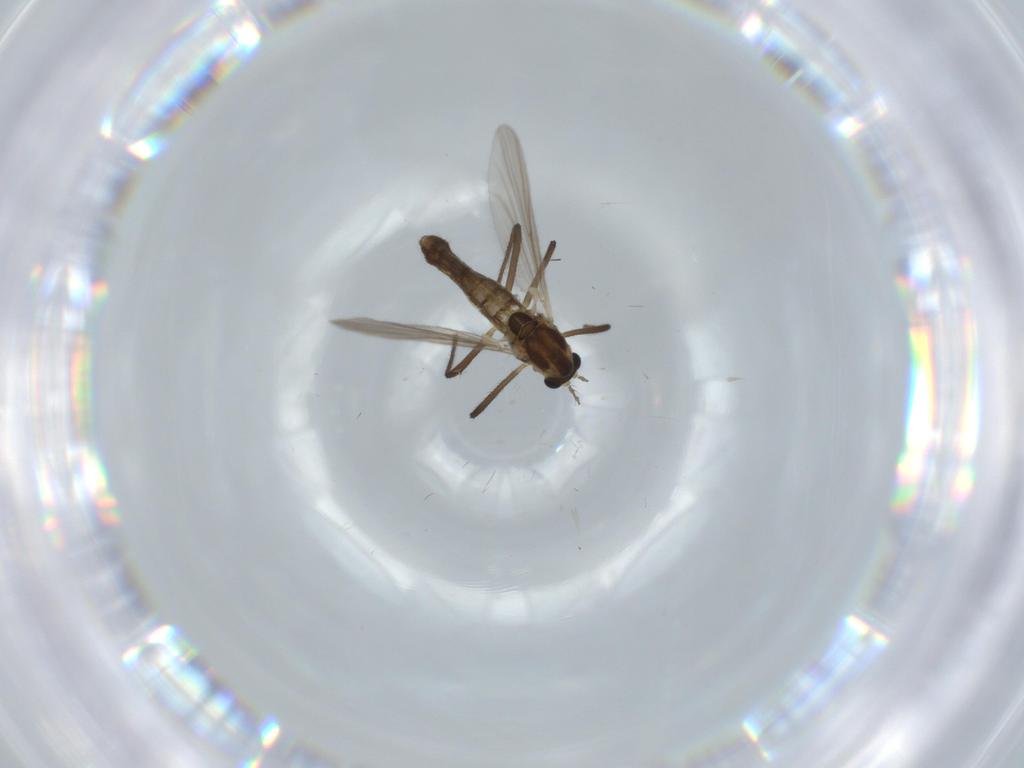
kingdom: Animalia
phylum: Arthropoda
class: Insecta
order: Diptera
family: Chironomidae
